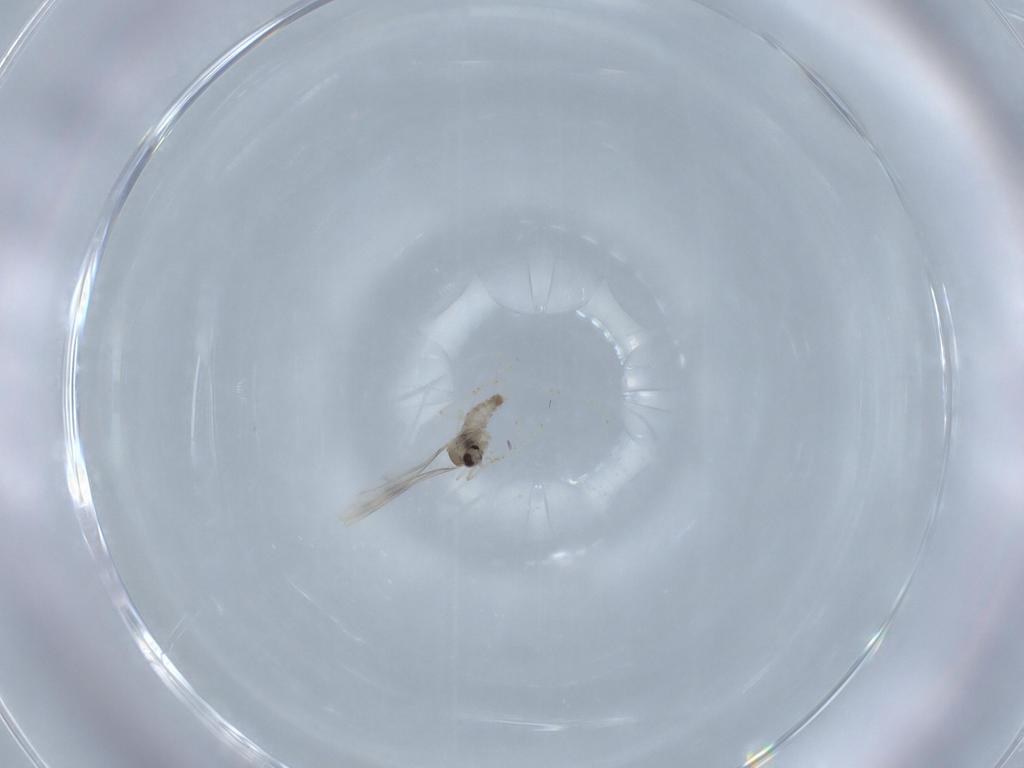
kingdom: Animalia
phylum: Arthropoda
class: Insecta
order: Diptera
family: Cecidomyiidae
